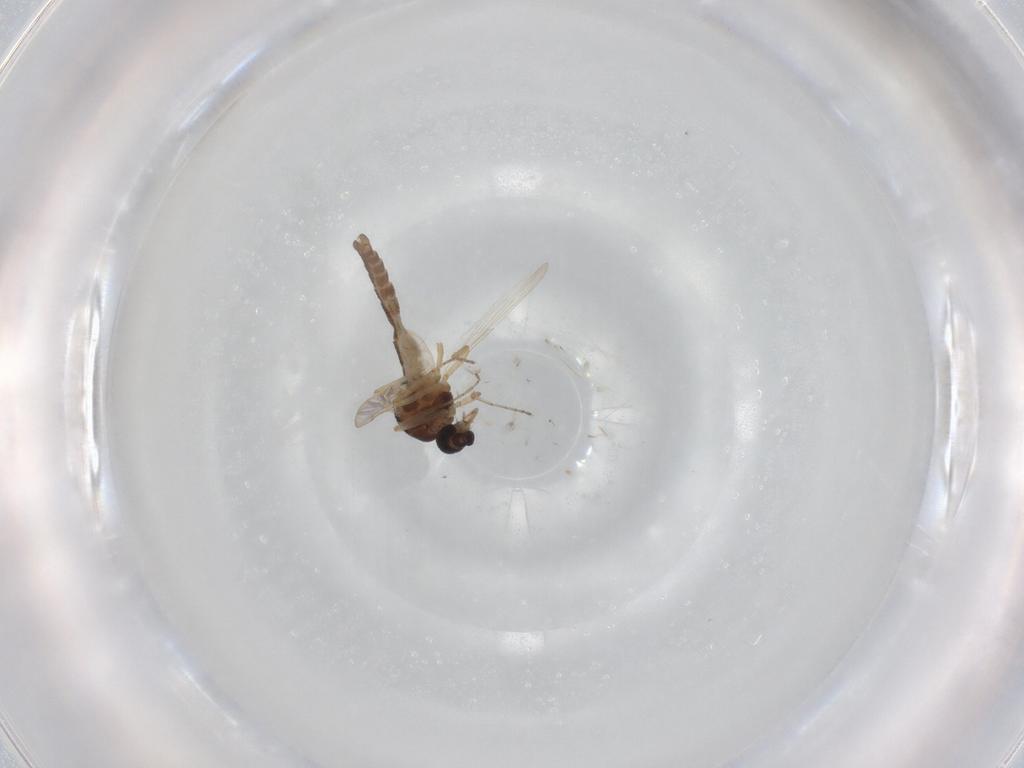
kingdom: Animalia
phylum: Arthropoda
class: Insecta
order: Diptera
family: Ceratopogonidae
